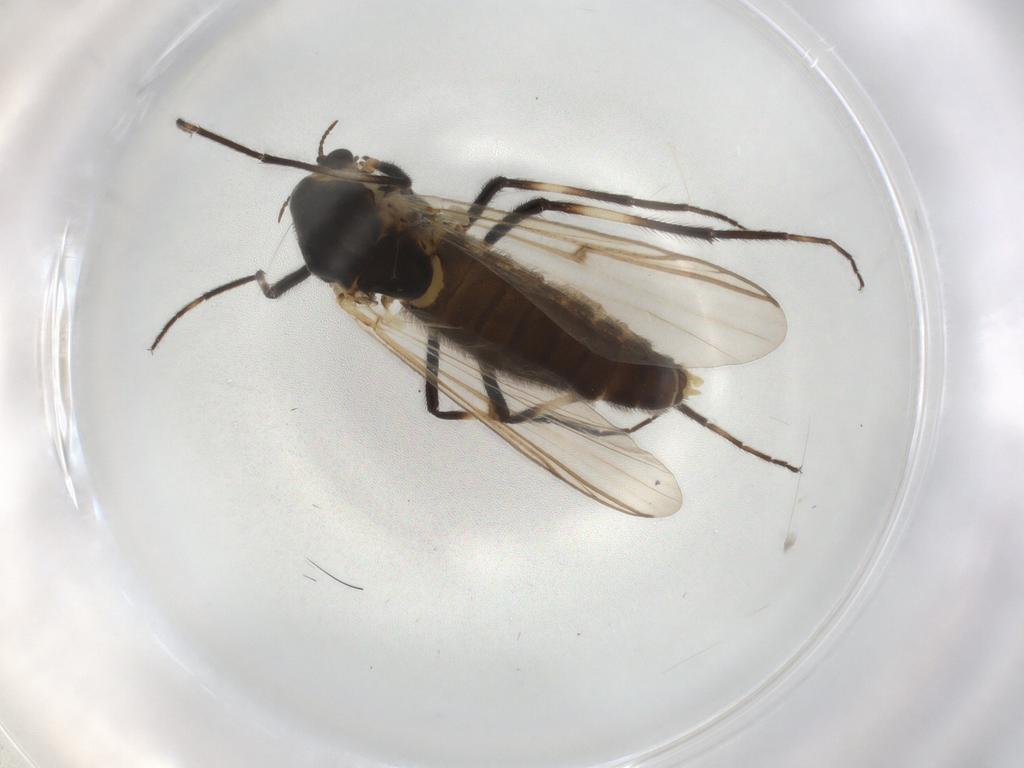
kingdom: Animalia
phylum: Arthropoda
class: Insecta
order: Diptera
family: Chironomidae
